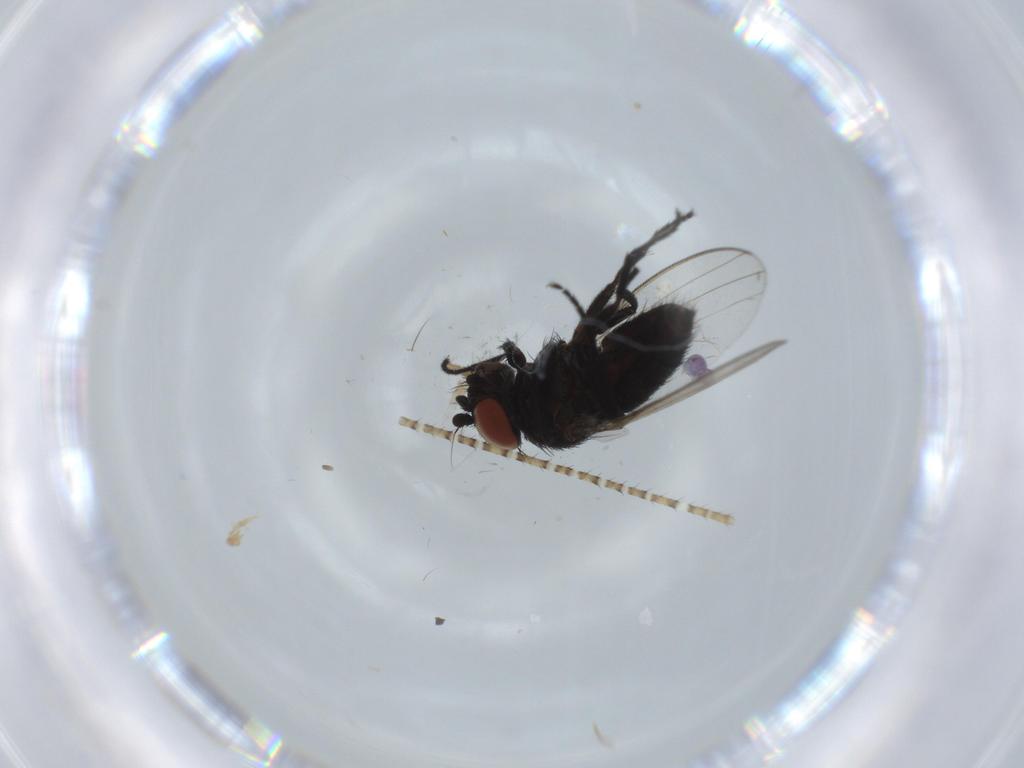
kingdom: Animalia
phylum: Arthropoda
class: Insecta
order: Diptera
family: Milichiidae
